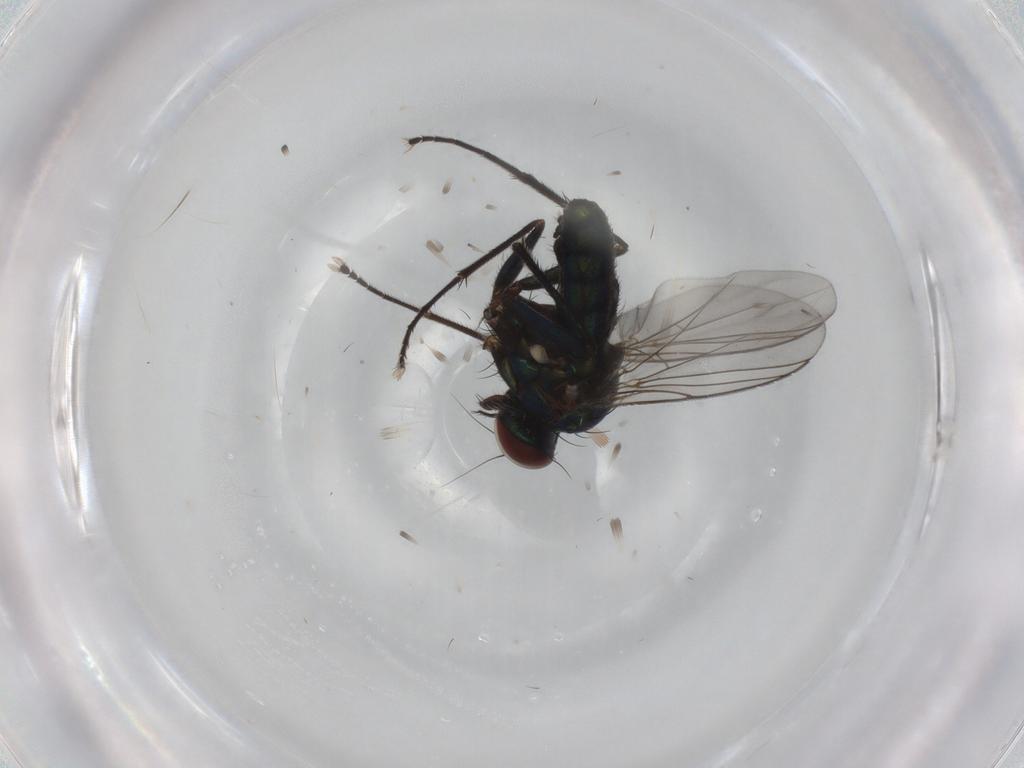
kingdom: Animalia
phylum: Arthropoda
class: Insecta
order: Diptera
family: Dolichopodidae
